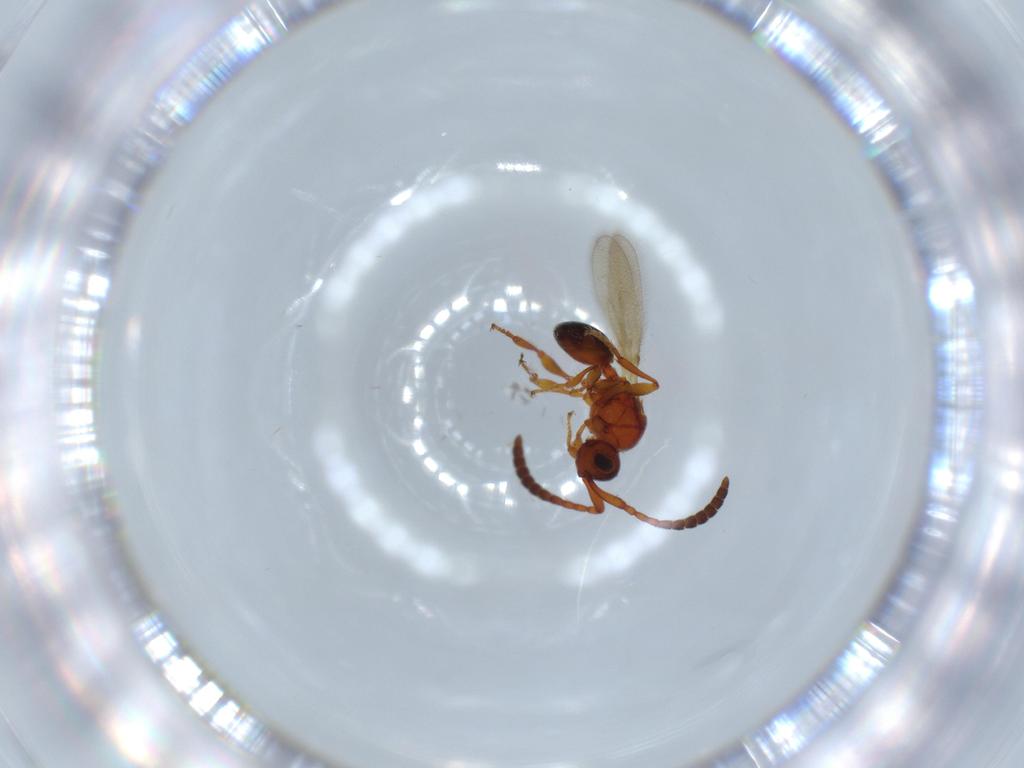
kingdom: Animalia
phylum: Arthropoda
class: Insecta
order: Hymenoptera
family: Diapriidae
